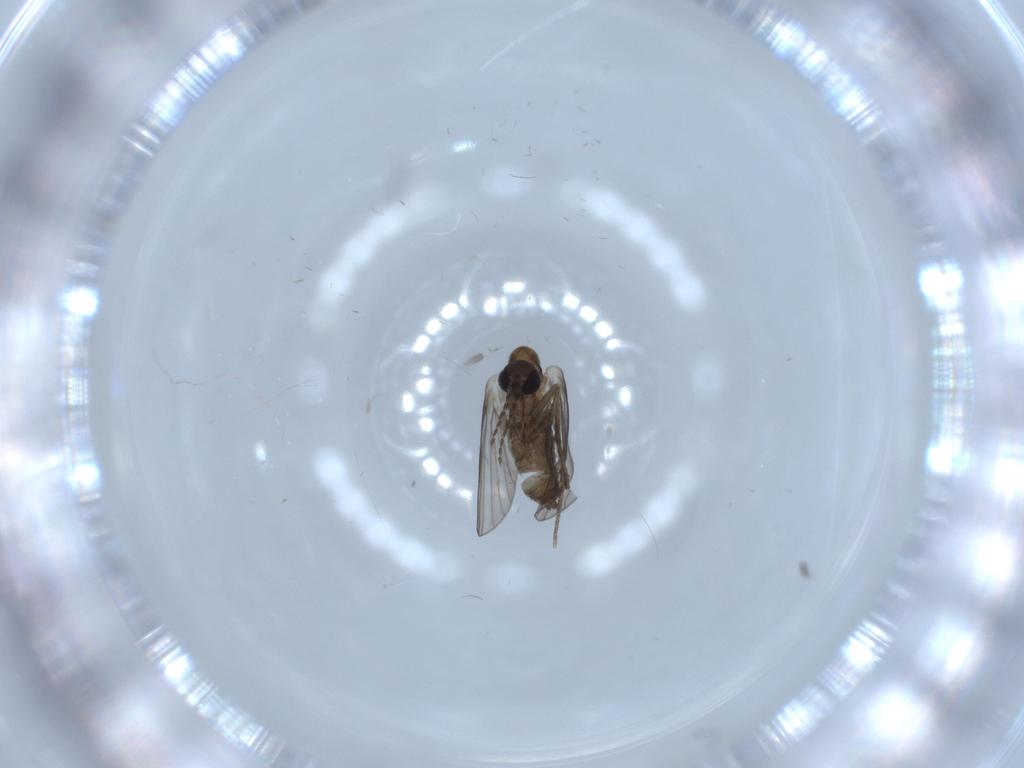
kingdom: Animalia
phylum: Arthropoda
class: Insecta
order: Diptera
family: Psychodidae
